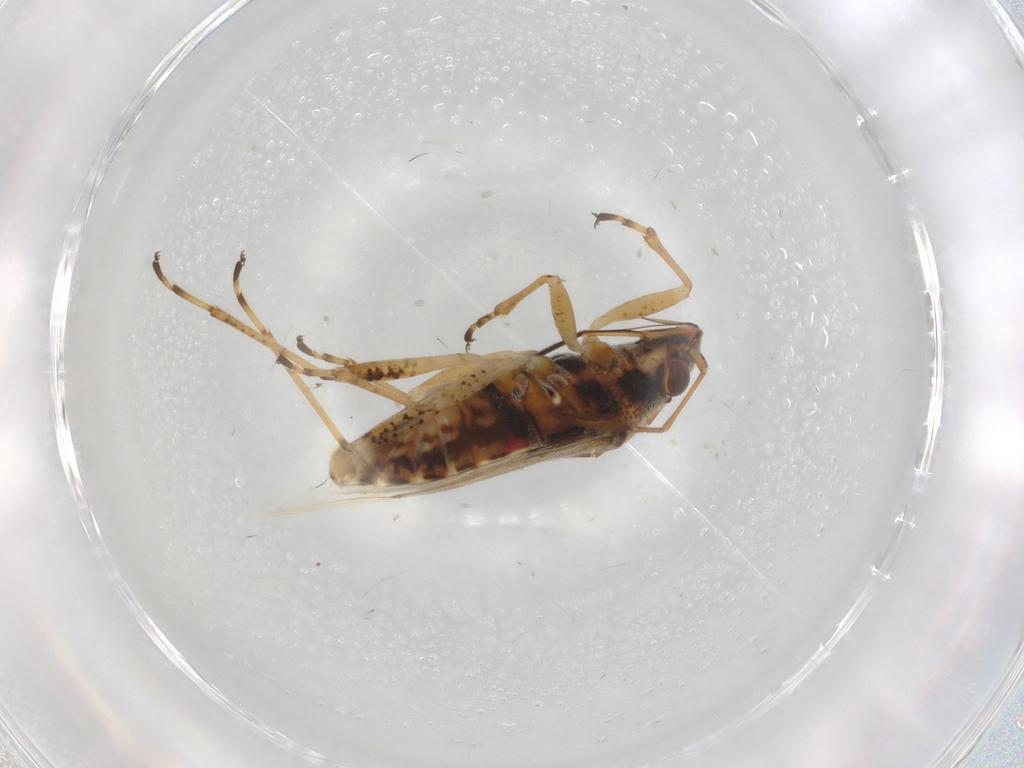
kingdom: Animalia
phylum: Arthropoda
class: Insecta
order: Hemiptera
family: Lygaeidae
